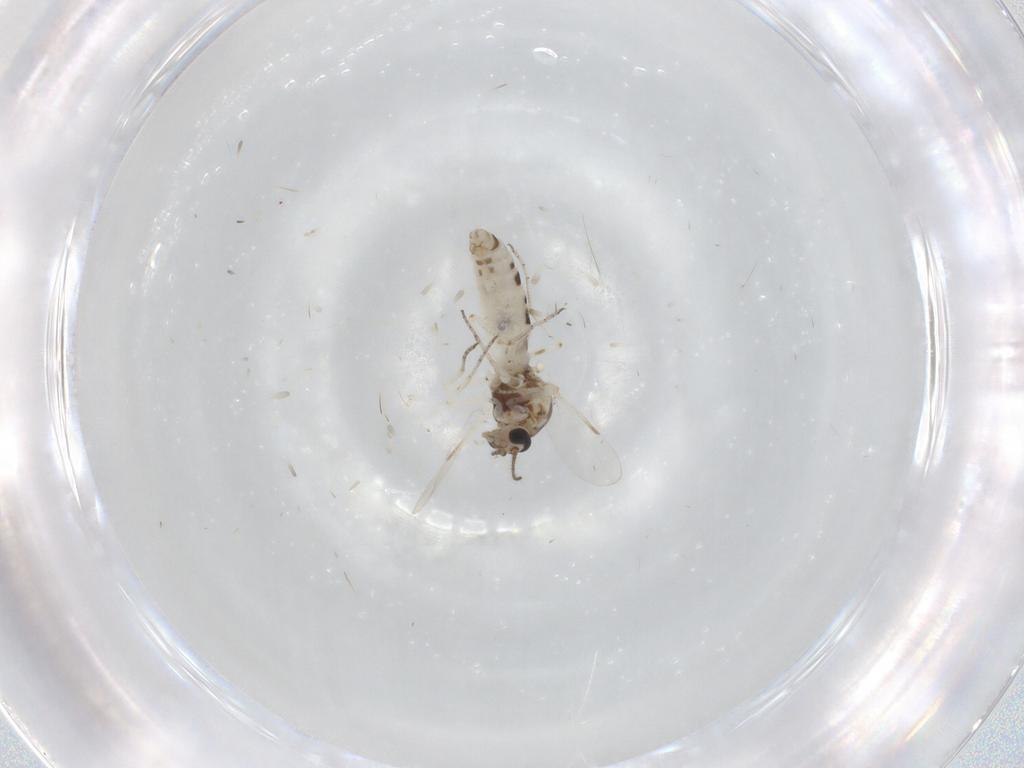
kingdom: Animalia
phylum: Arthropoda
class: Insecta
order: Diptera
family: Ceratopogonidae
